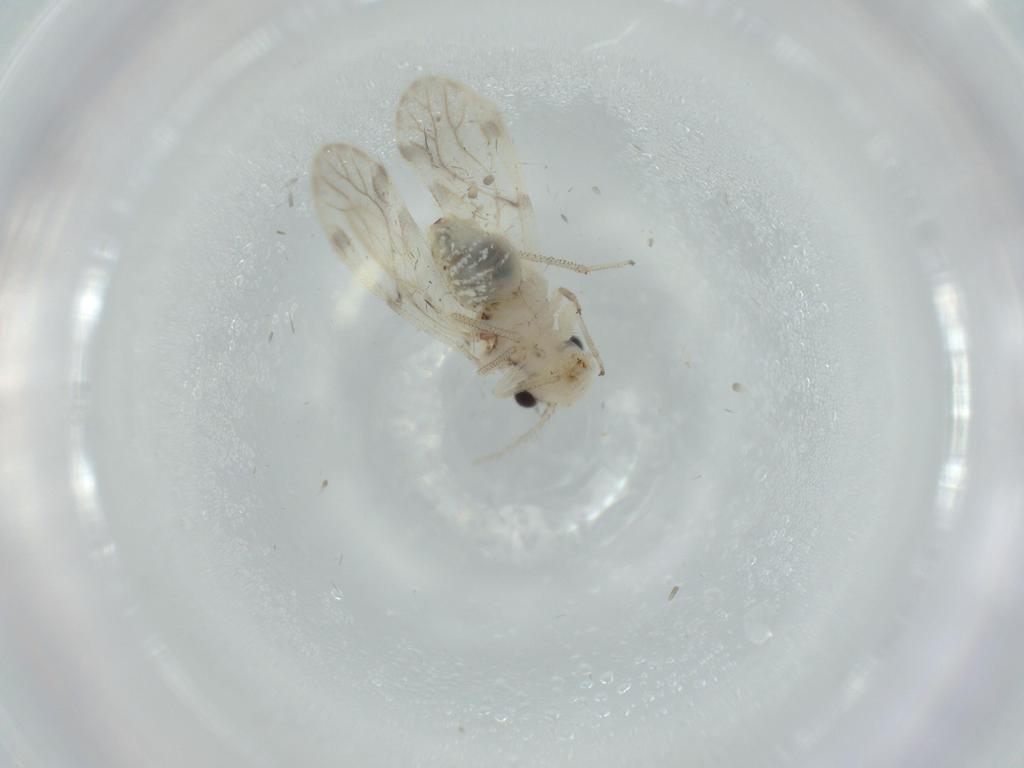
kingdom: Animalia
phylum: Arthropoda
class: Insecta
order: Psocodea
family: Pseudocaeciliidae
